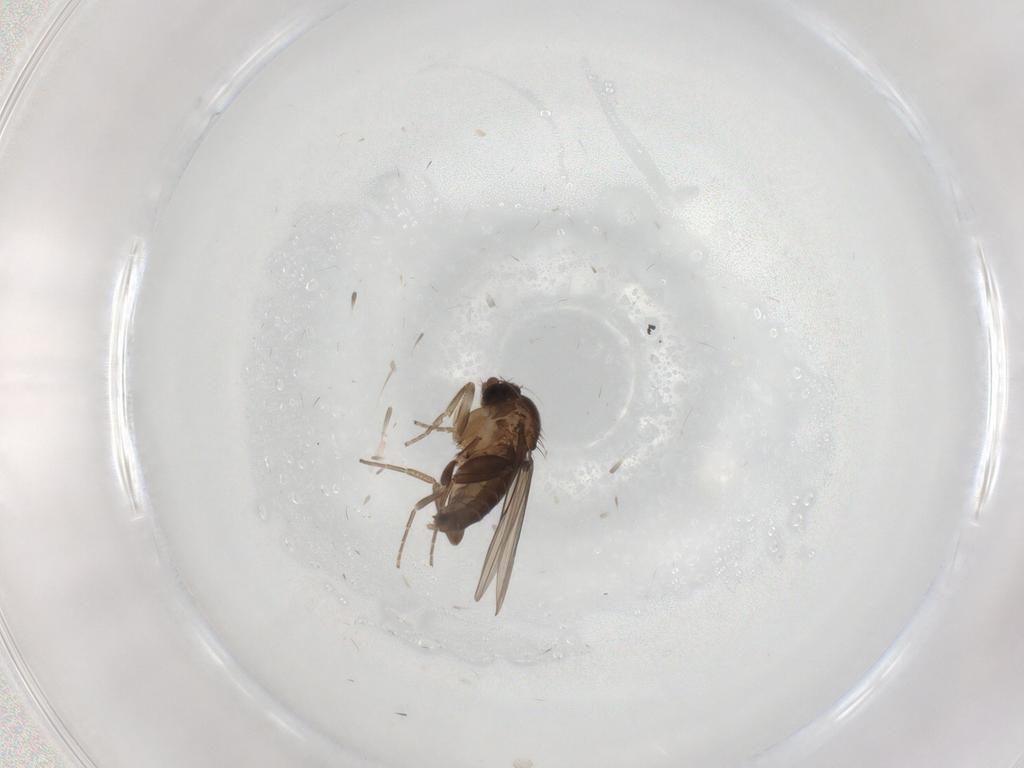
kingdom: Animalia
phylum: Arthropoda
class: Insecta
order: Diptera
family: Phoridae
